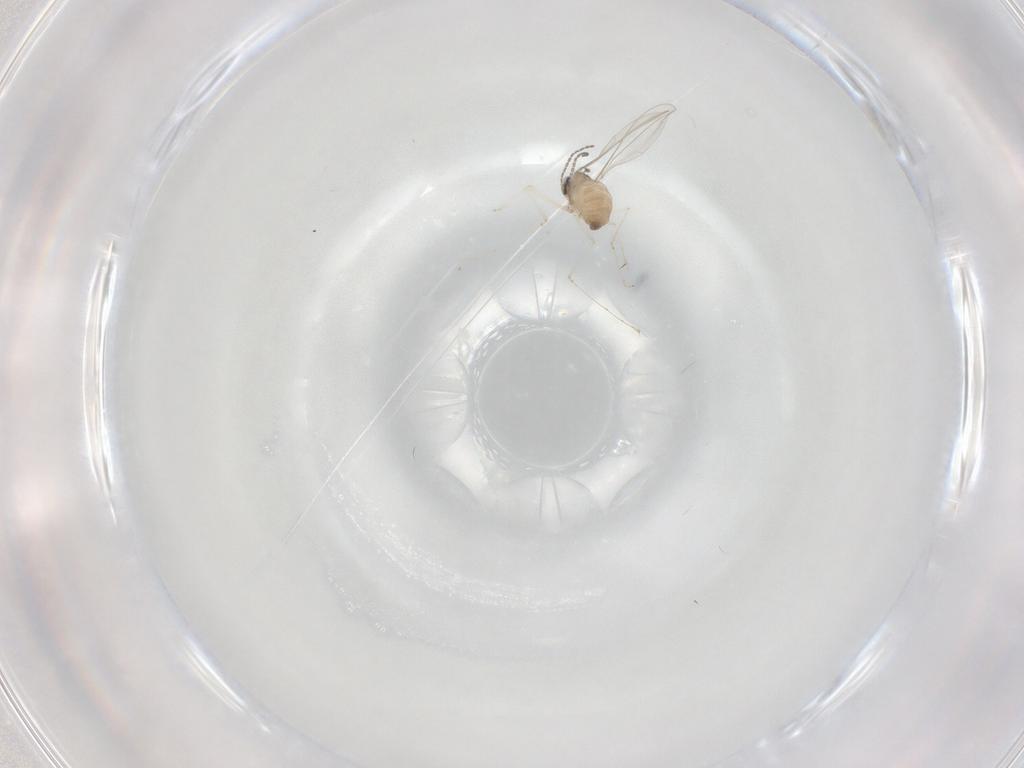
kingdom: Animalia
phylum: Arthropoda
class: Insecta
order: Diptera
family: Cecidomyiidae
